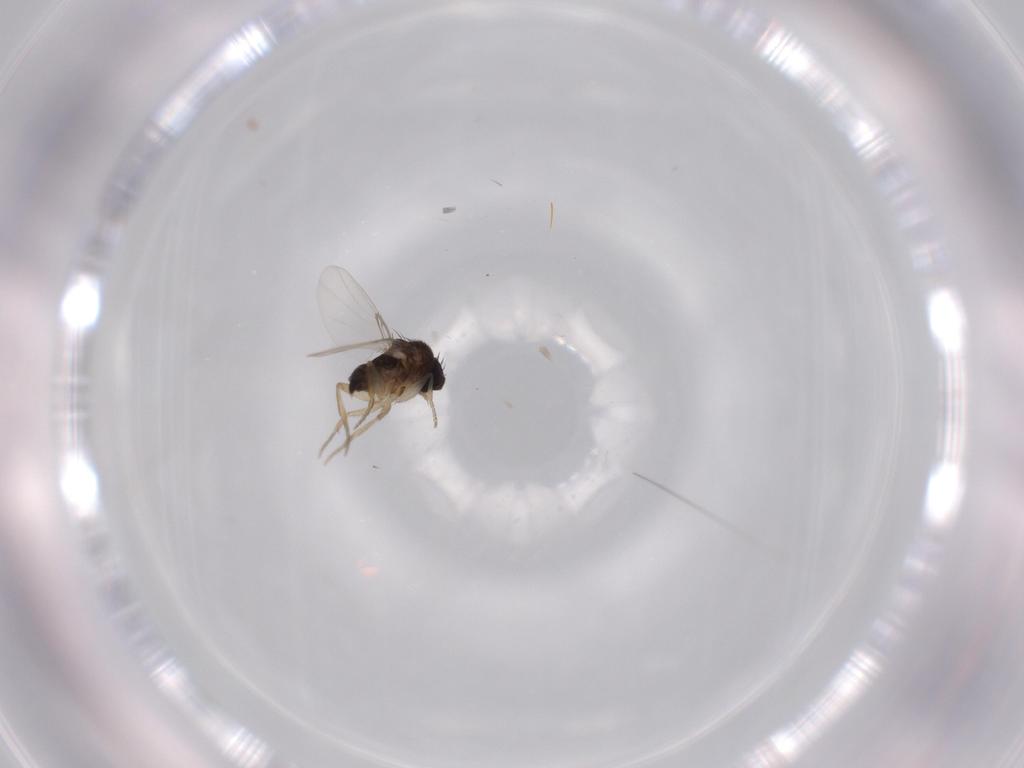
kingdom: Animalia
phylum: Arthropoda
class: Insecta
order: Diptera
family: Phoridae
